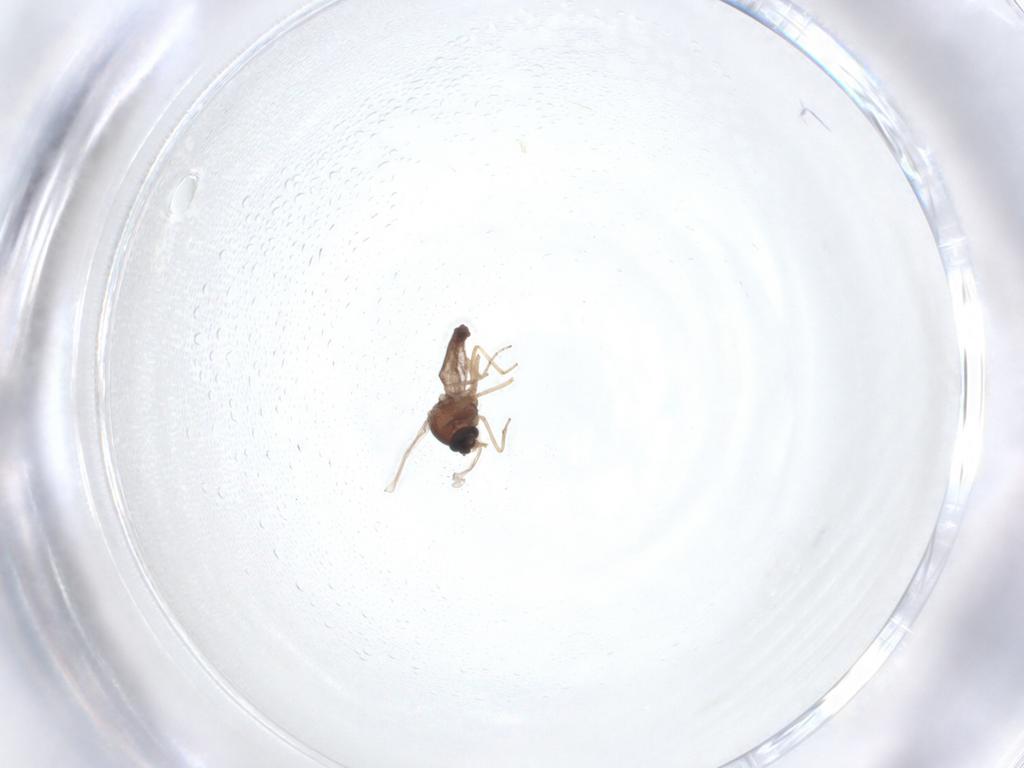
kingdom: Animalia
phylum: Arthropoda
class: Insecta
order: Diptera
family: Ceratopogonidae
